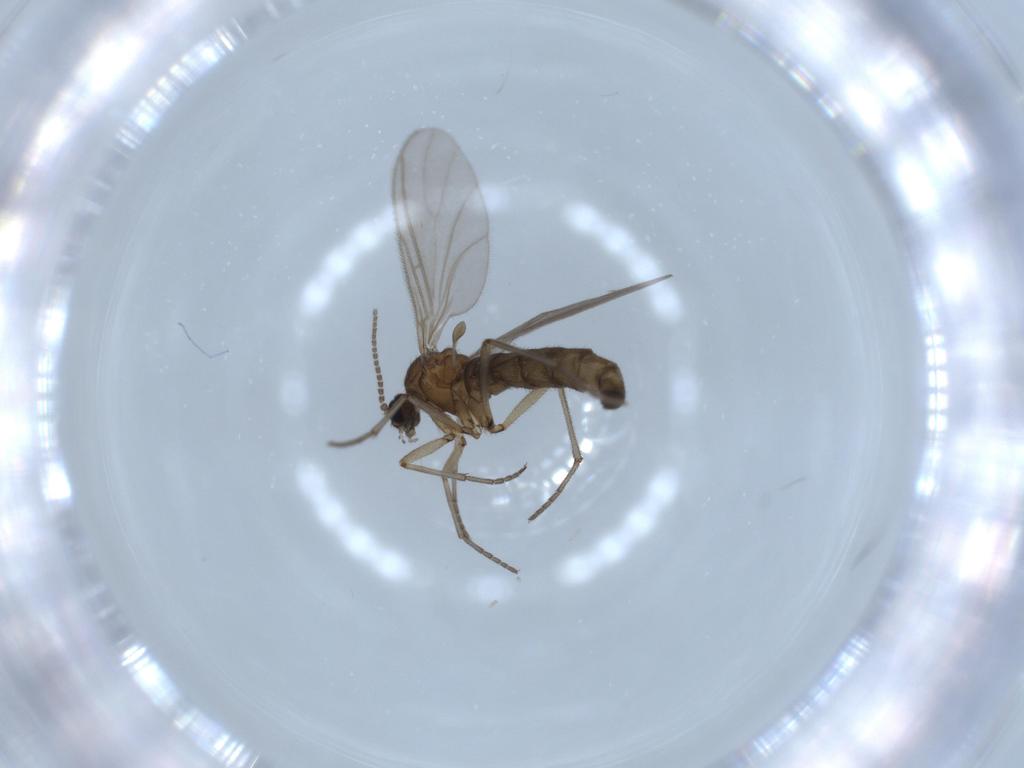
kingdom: Animalia
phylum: Arthropoda
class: Insecta
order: Diptera
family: Sciaridae
